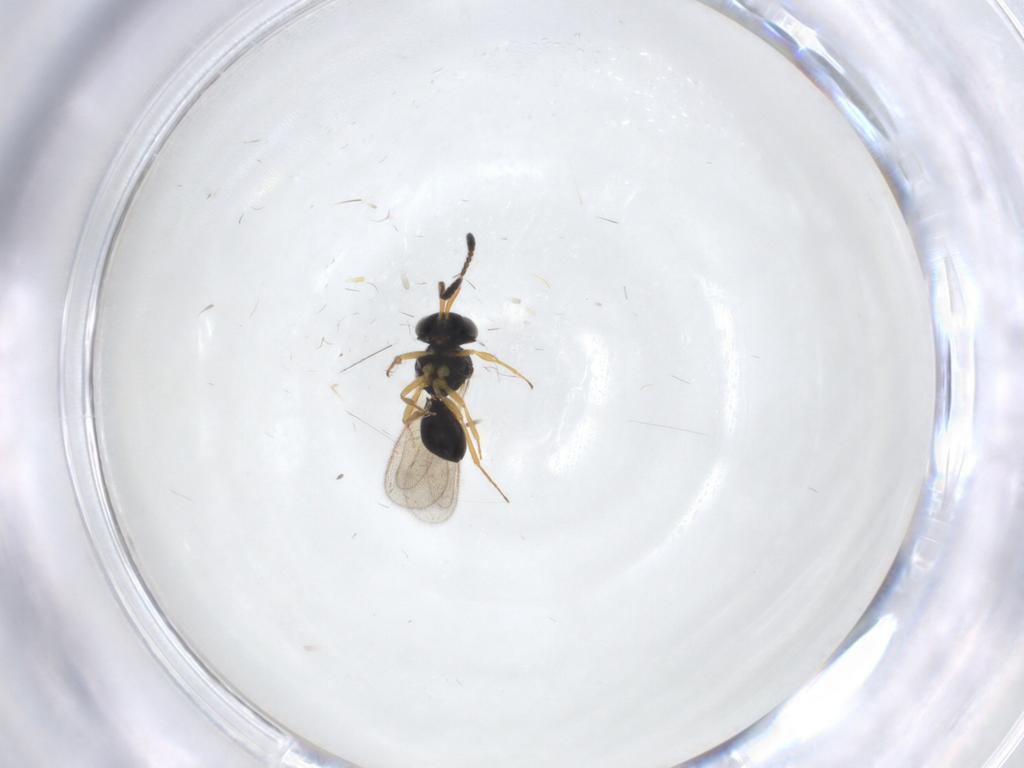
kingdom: Animalia
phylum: Arthropoda
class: Insecta
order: Hymenoptera
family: Scelionidae
